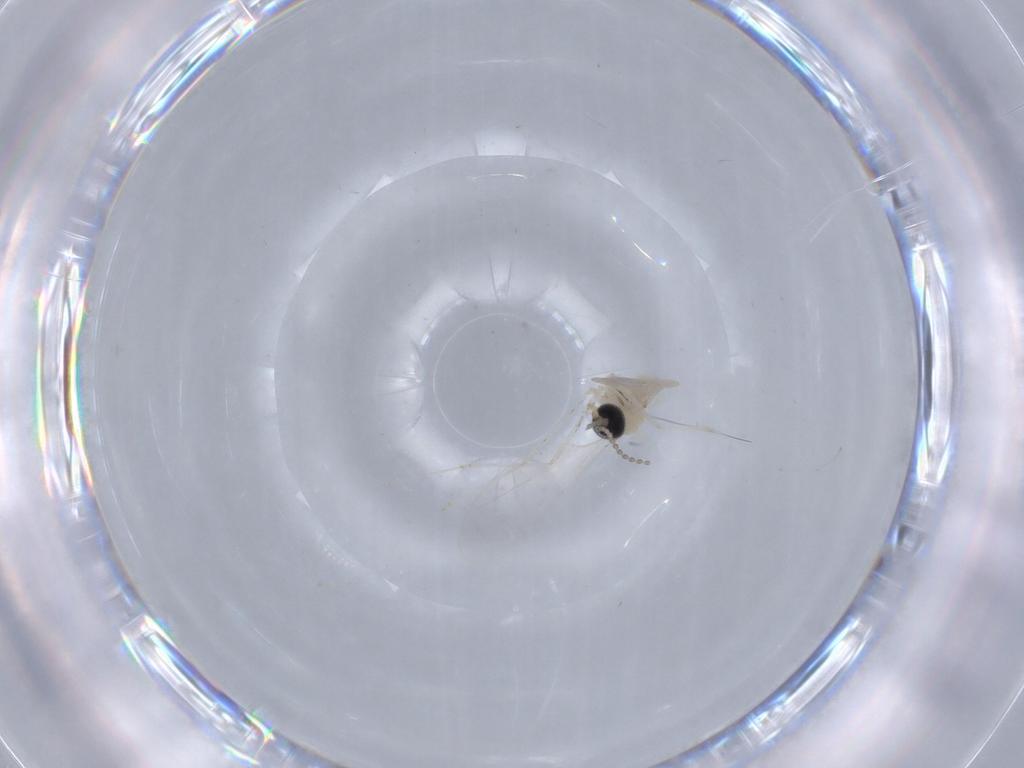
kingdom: Animalia
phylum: Arthropoda
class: Insecta
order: Diptera
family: Cecidomyiidae
